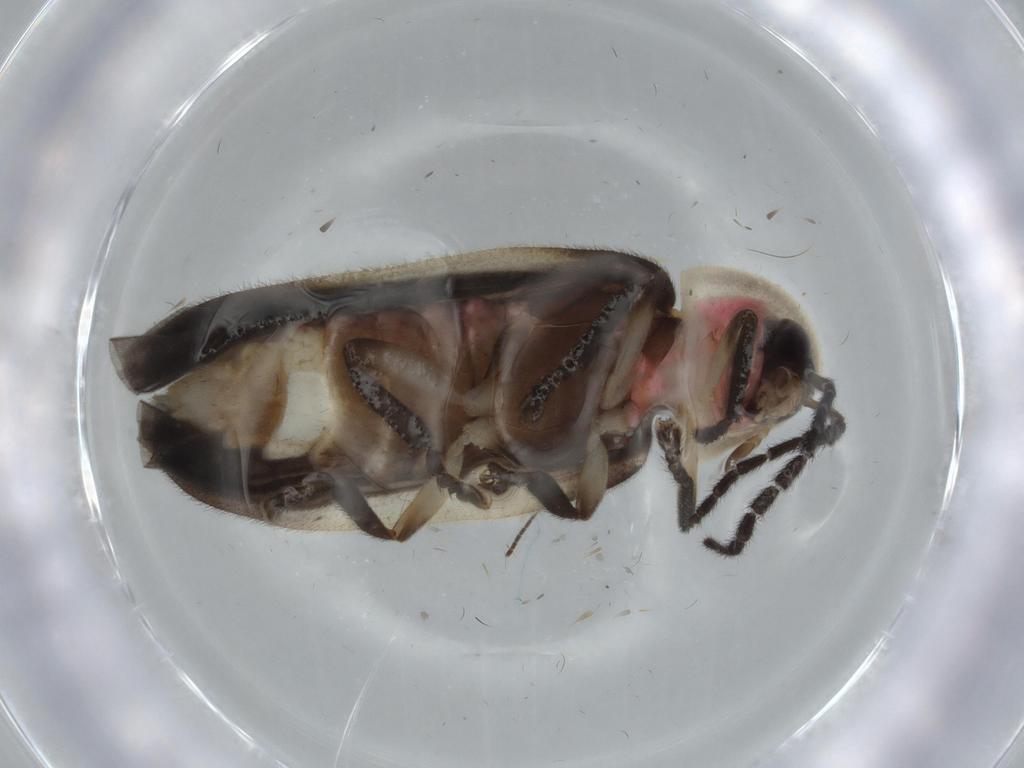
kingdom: Animalia
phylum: Arthropoda
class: Insecta
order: Coleoptera
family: Lampyridae
